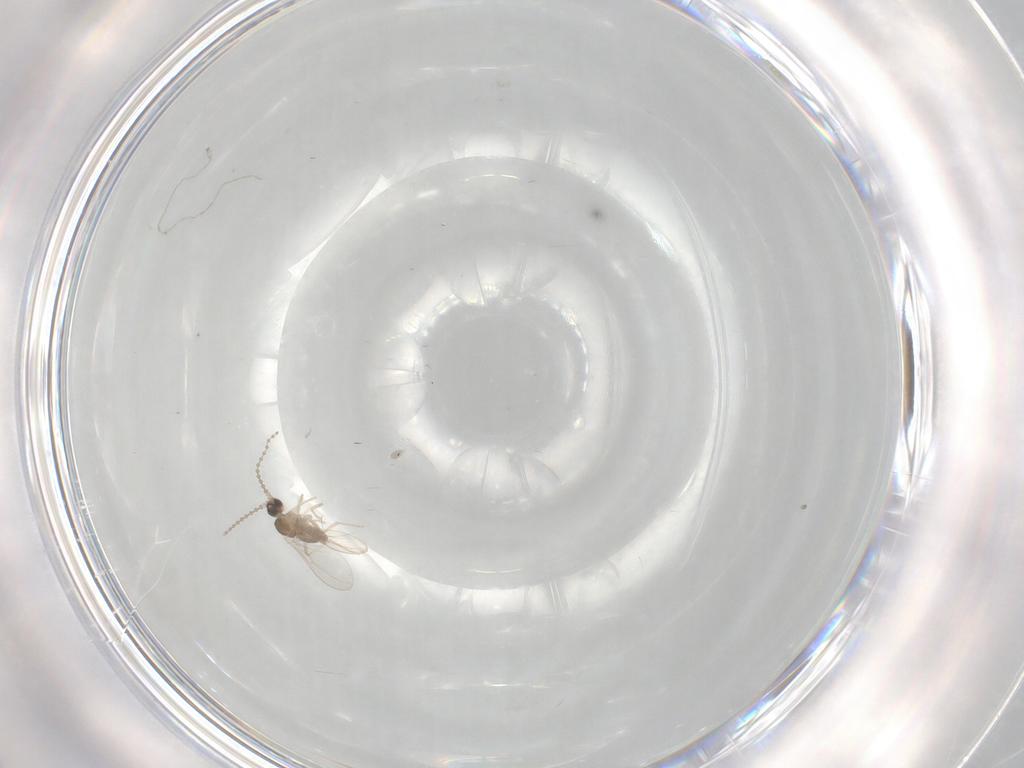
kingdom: Animalia
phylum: Arthropoda
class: Insecta
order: Diptera
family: Cecidomyiidae
